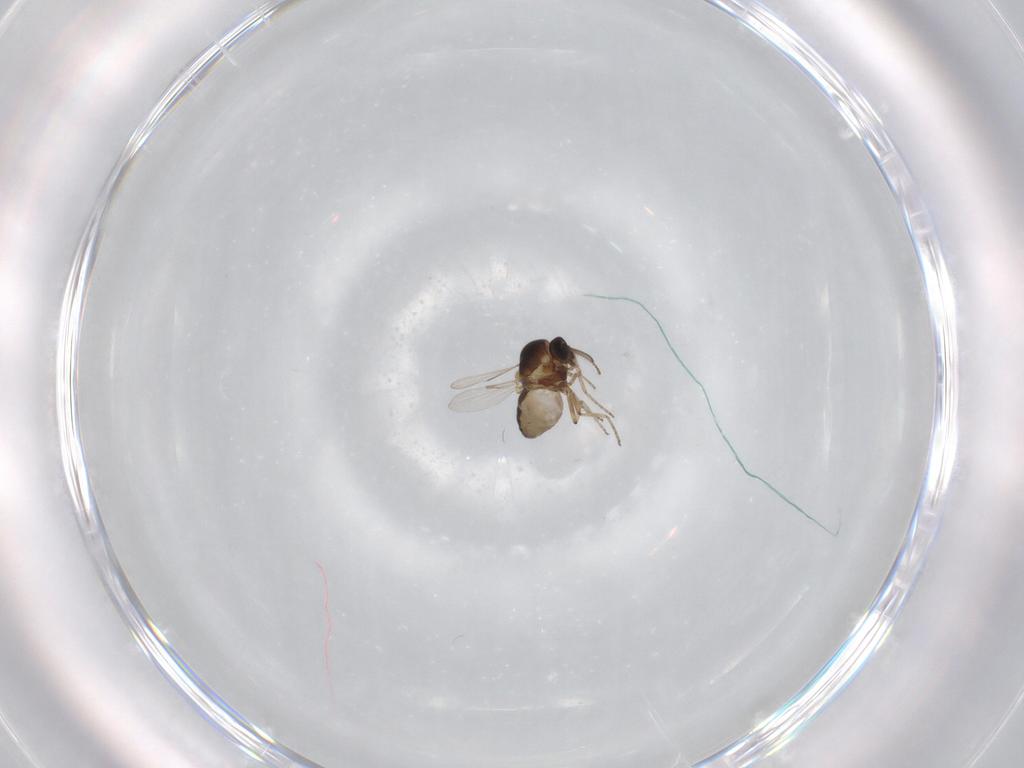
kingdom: Animalia
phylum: Arthropoda
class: Insecta
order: Diptera
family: Ceratopogonidae
